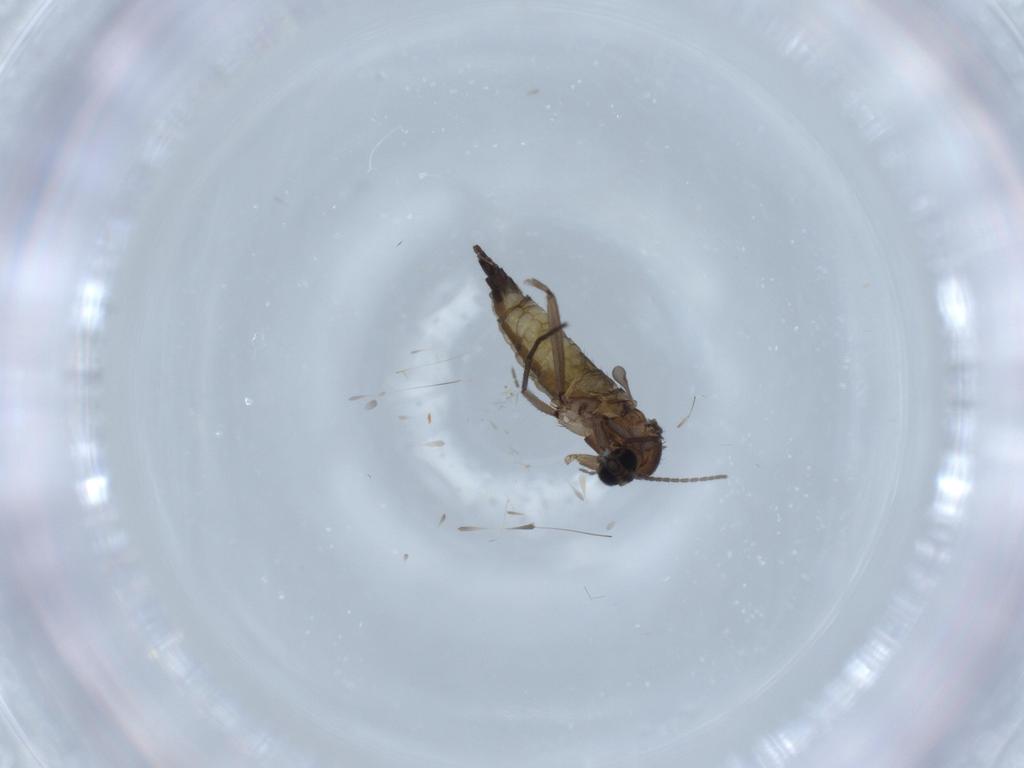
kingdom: Animalia
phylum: Arthropoda
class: Insecta
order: Diptera
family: Sciaridae
